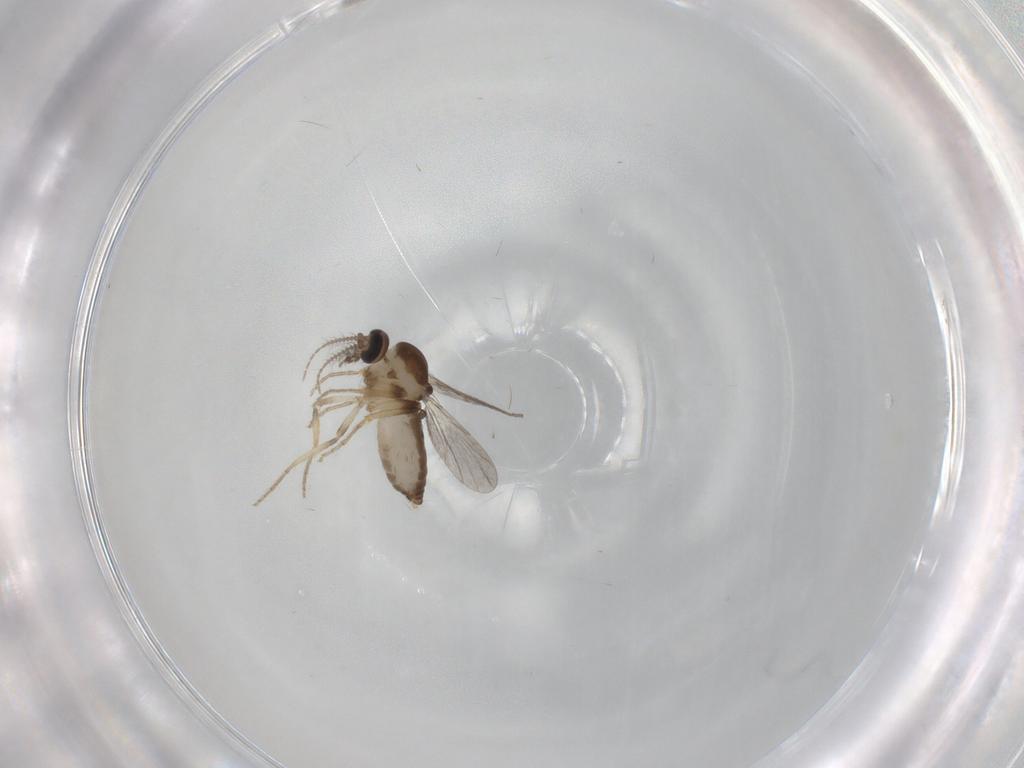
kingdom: Animalia
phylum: Arthropoda
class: Insecta
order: Diptera
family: Ceratopogonidae
